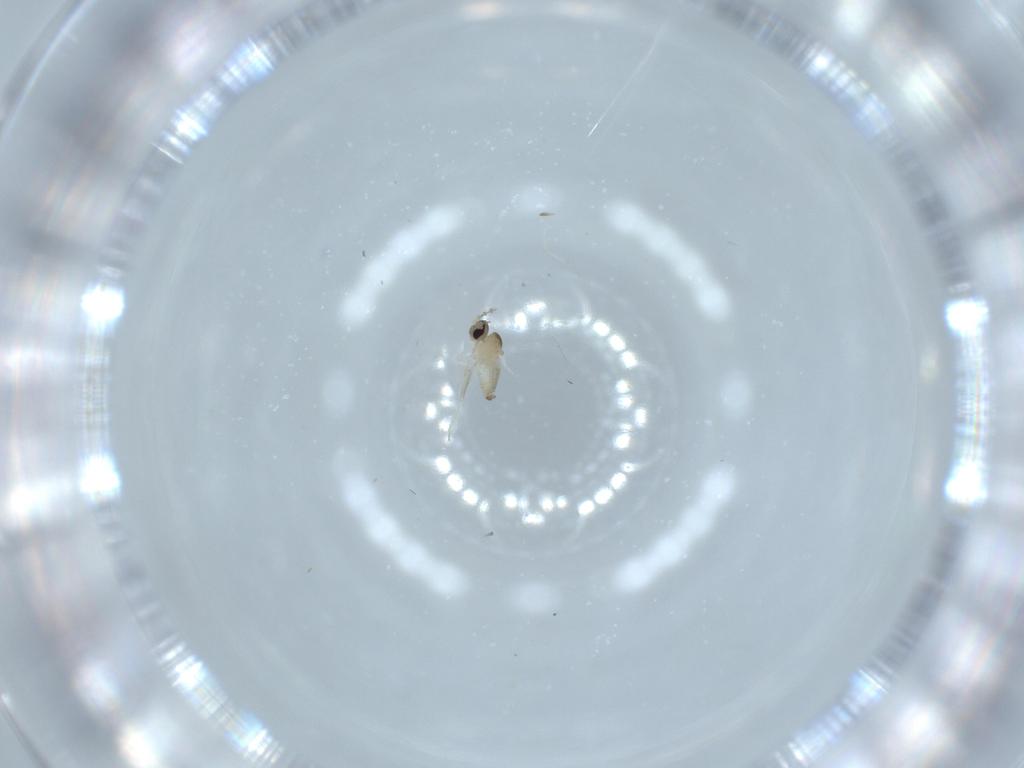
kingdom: Animalia
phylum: Arthropoda
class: Insecta
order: Diptera
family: Cecidomyiidae
